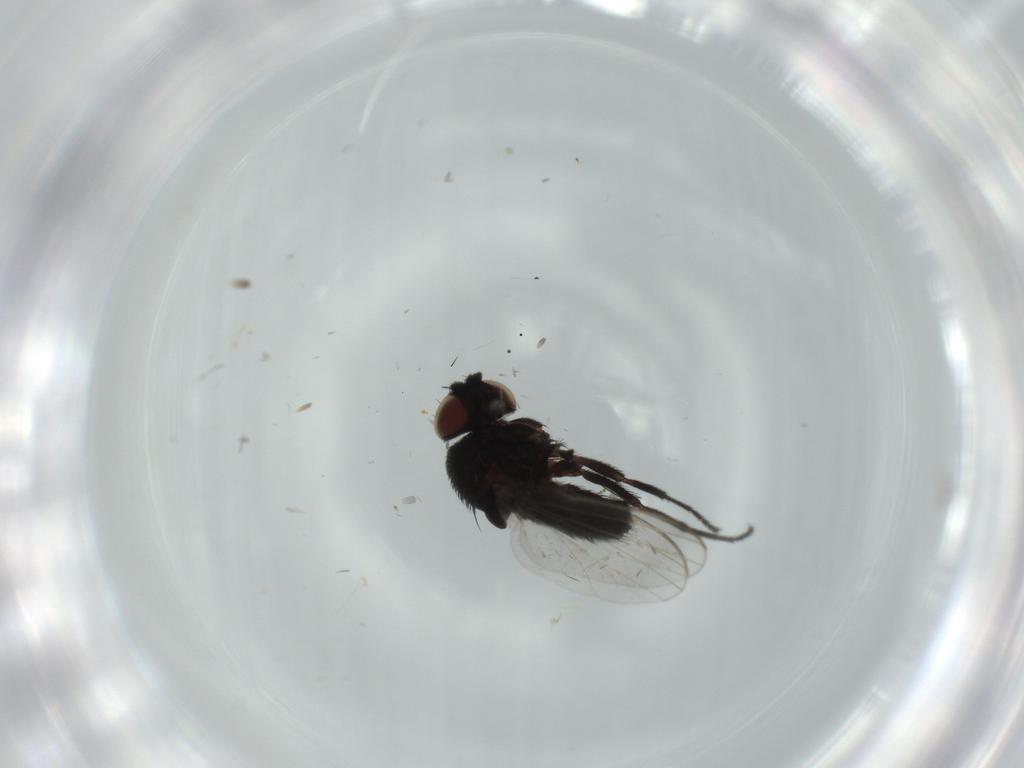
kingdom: Animalia
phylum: Arthropoda
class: Insecta
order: Diptera
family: Milichiidae
